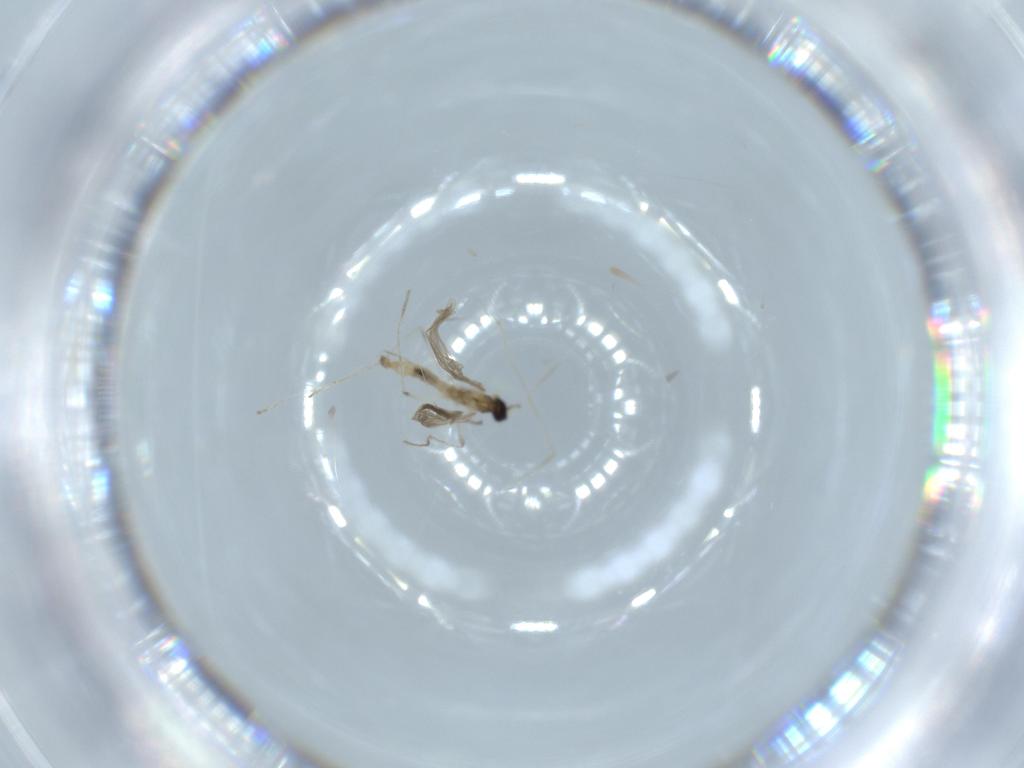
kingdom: Animalia
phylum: Arthropoda
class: Insecta
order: Diptera
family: Cecidomyiidae
